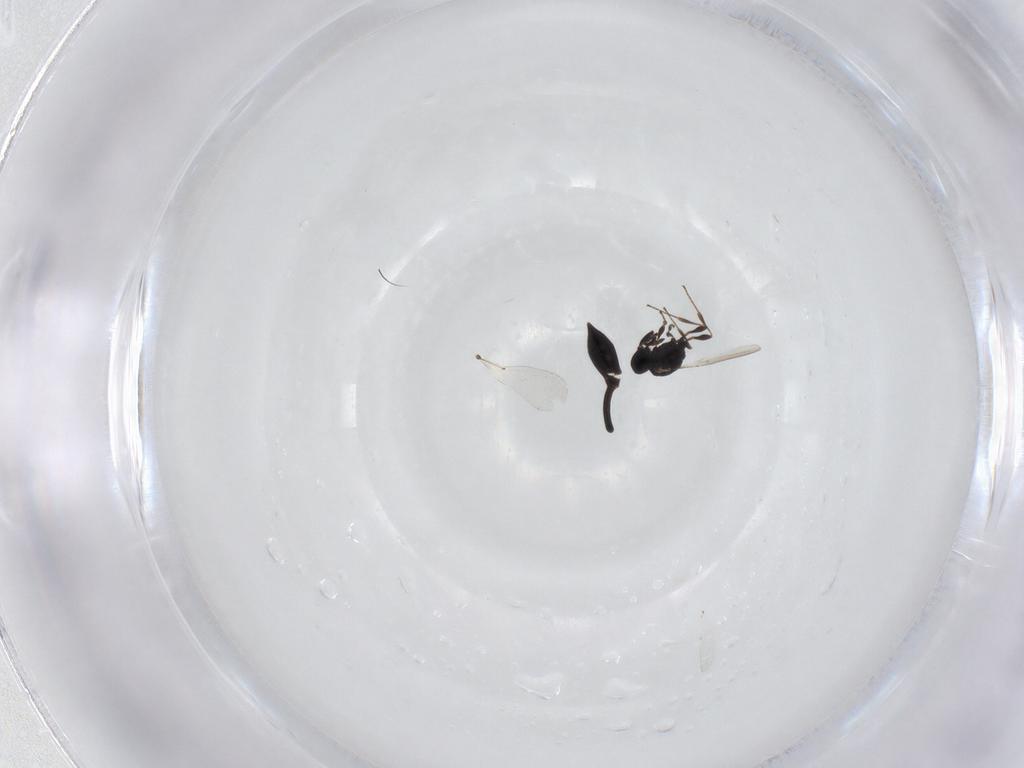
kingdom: Animalia
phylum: Arthropoda
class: Insecta
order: Hymenoptera
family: Platygastridae
